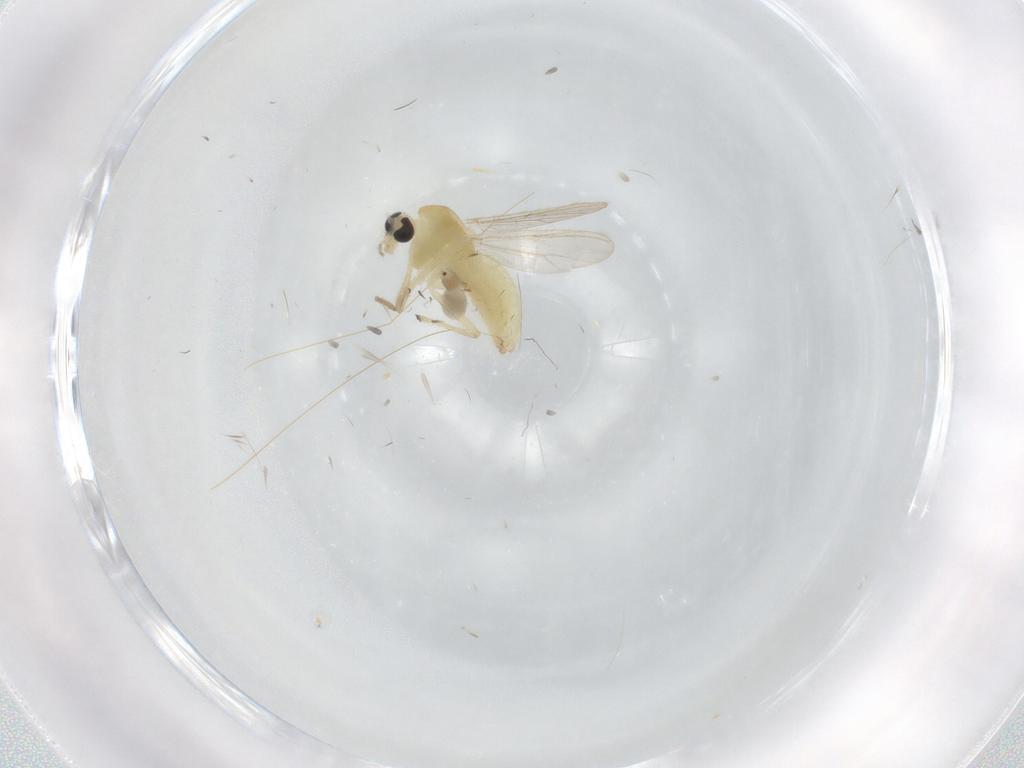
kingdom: Animalia
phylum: Arthropoda
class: Insecta
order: Diptera
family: Chironomidae
